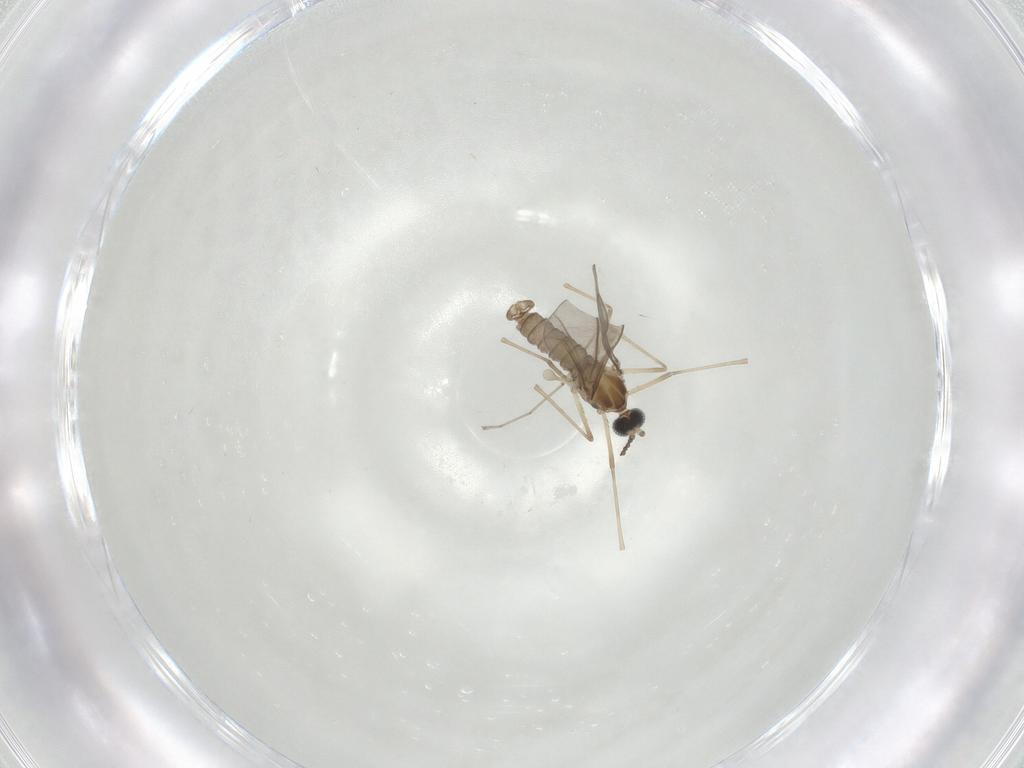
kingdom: Animalia
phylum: Arthropoda
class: Insecta
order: Diptera
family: Cecidomyiidae
